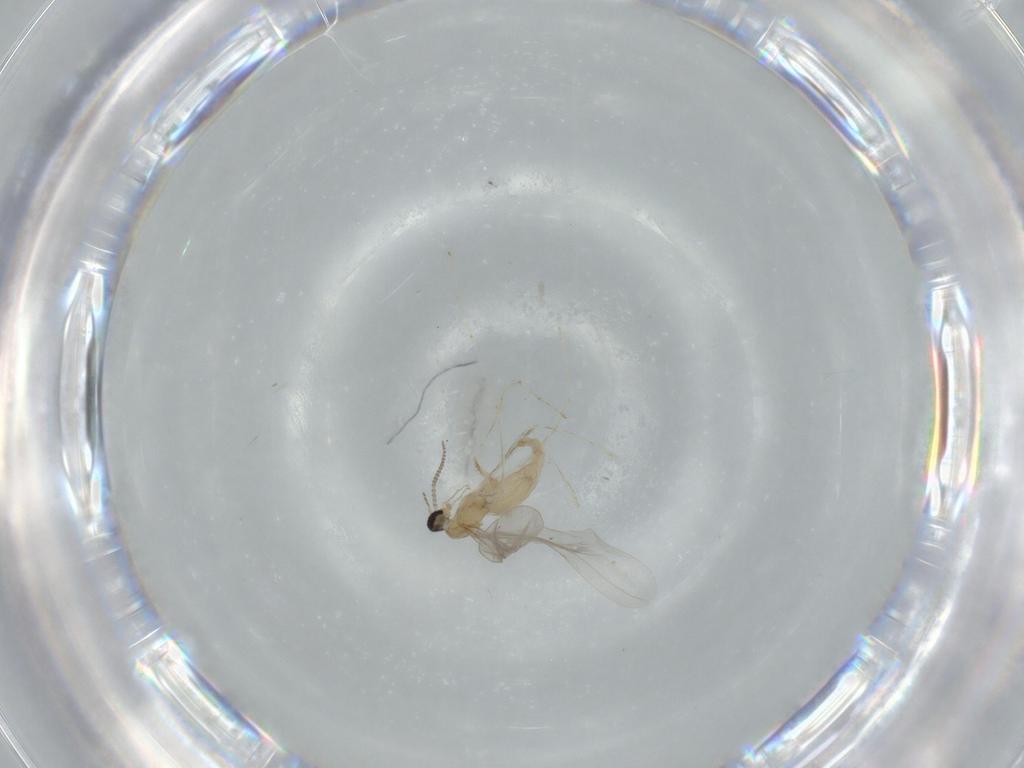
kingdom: Animalia
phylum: Arthropoda
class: Insecta
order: Diptera
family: Cecidomyiidae
